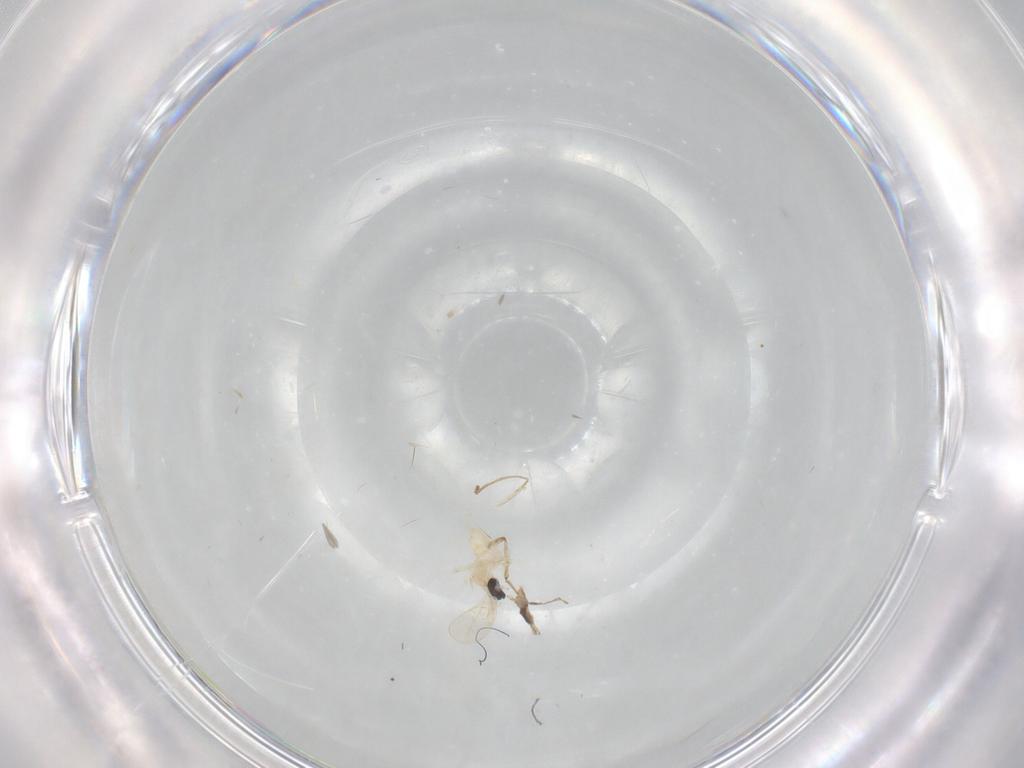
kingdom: Animalia
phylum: Arthropoda
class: Insecta
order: Diptera
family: Cecidomyiidae
